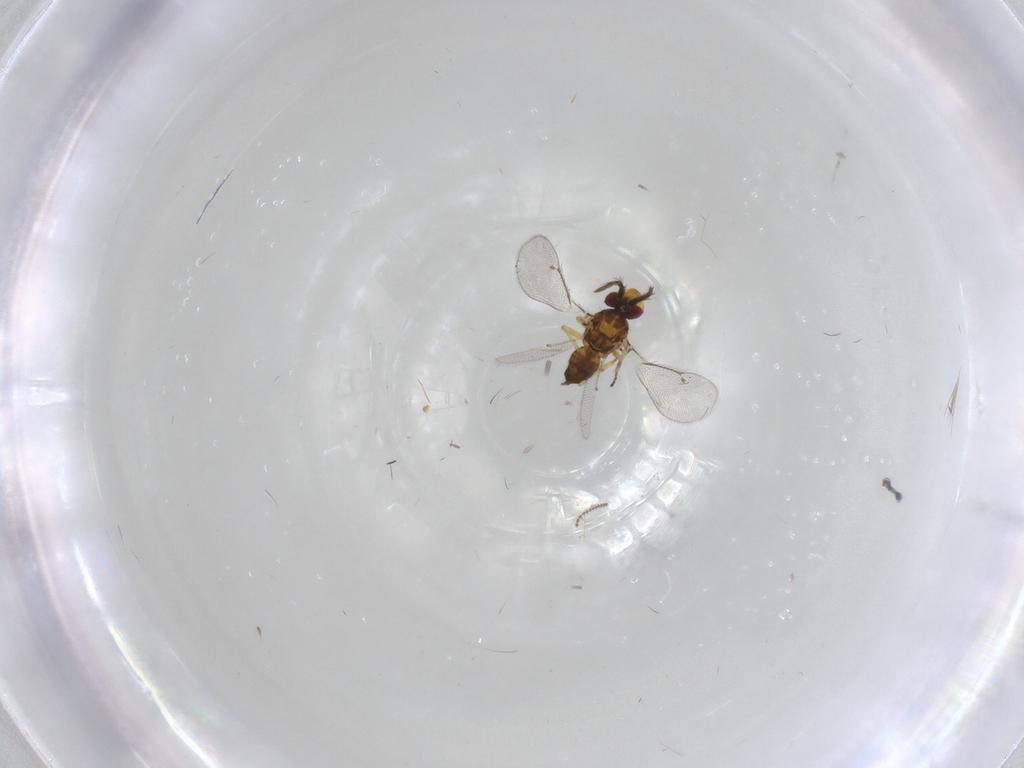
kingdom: Animalia
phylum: Arthropoda
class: Insecta
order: Hymenoptera
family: Eulophidae
